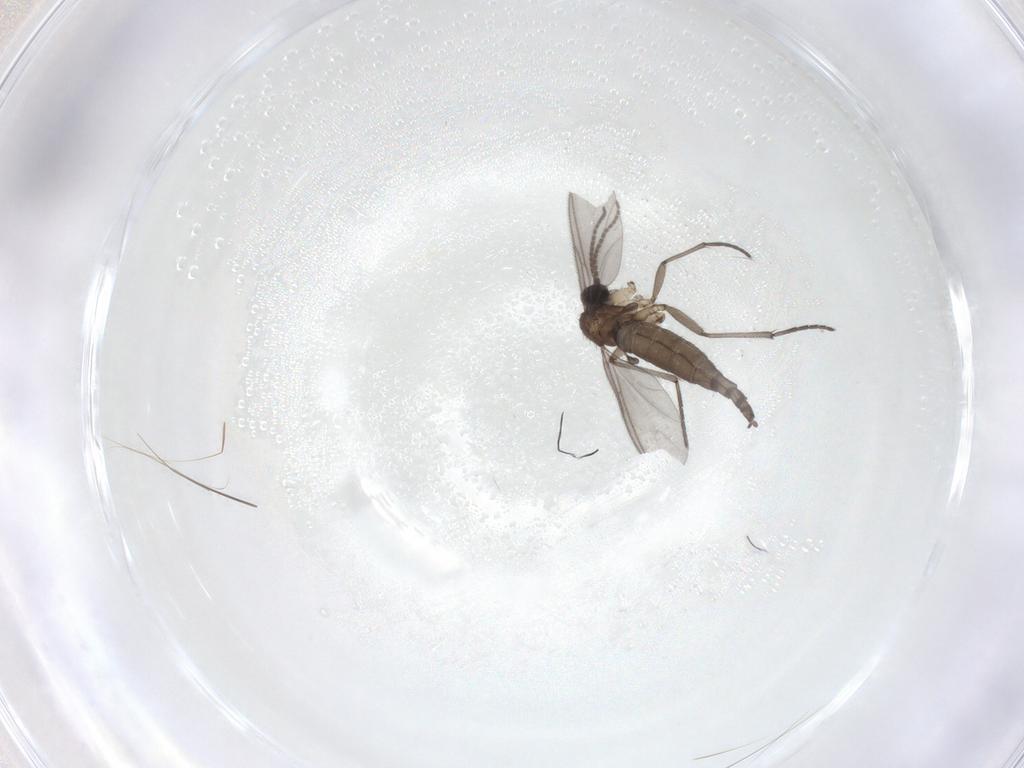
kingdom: Animalia
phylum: Arthropoda
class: Insecta
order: Diptera
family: Sciaridae
